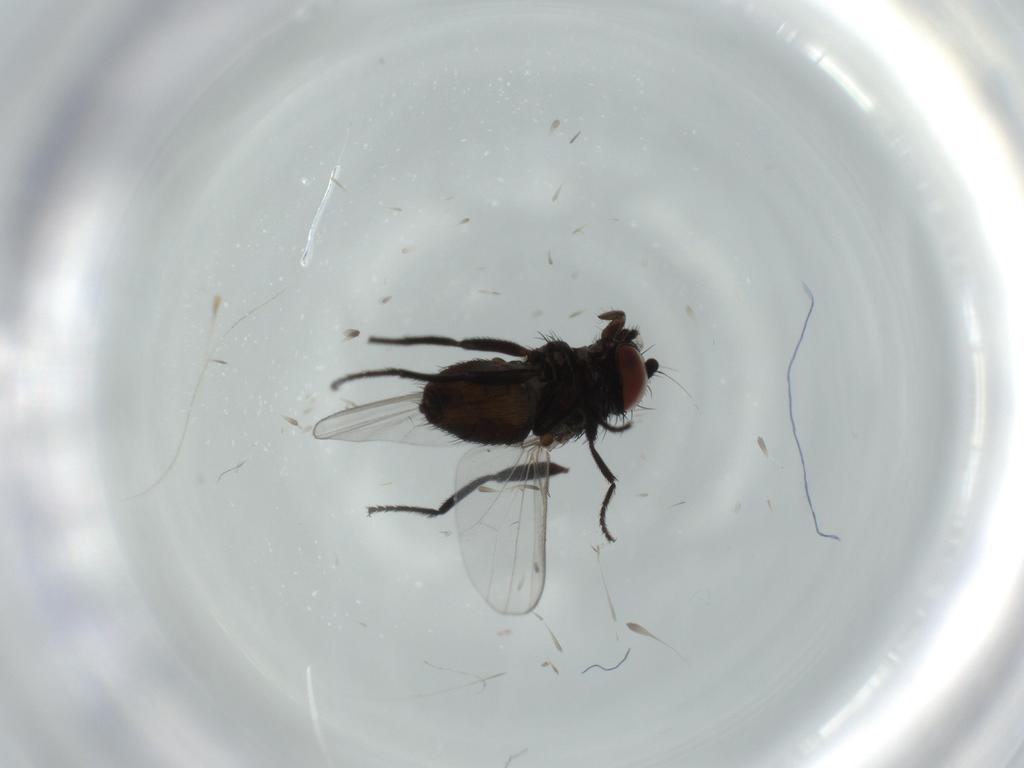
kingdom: Animalia
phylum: Arthropoda
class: Insecta
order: Diptera
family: Milichiidae
